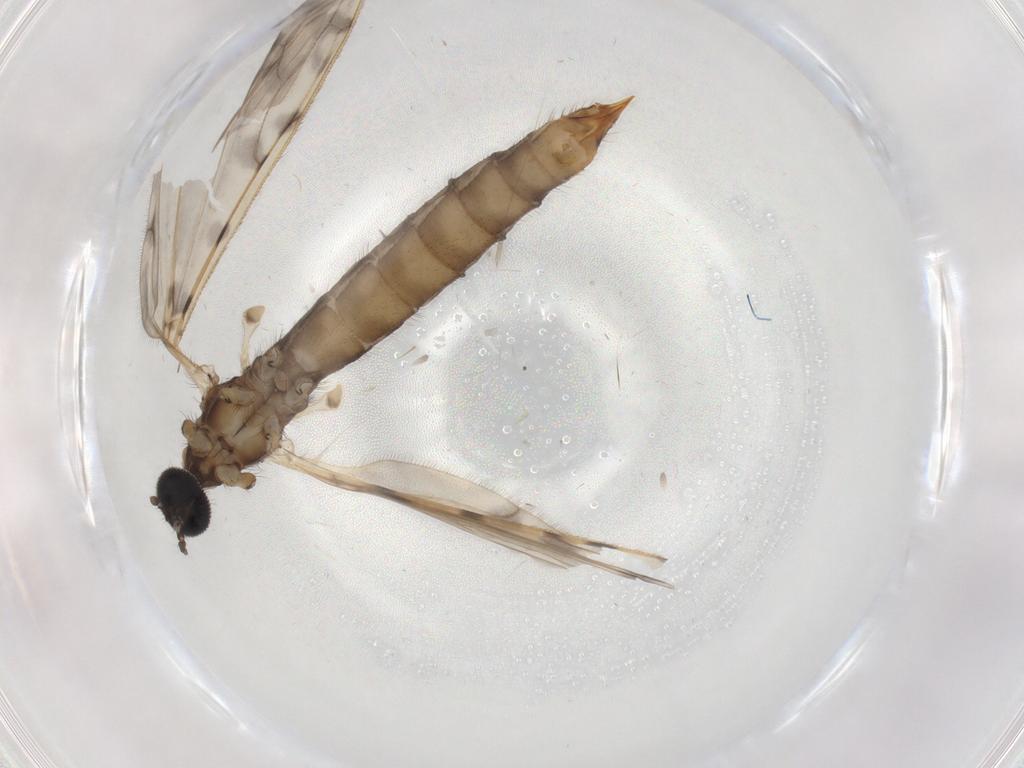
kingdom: Animalia
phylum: Arthropoda
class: Insecta
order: Diptera
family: Limoniidae
